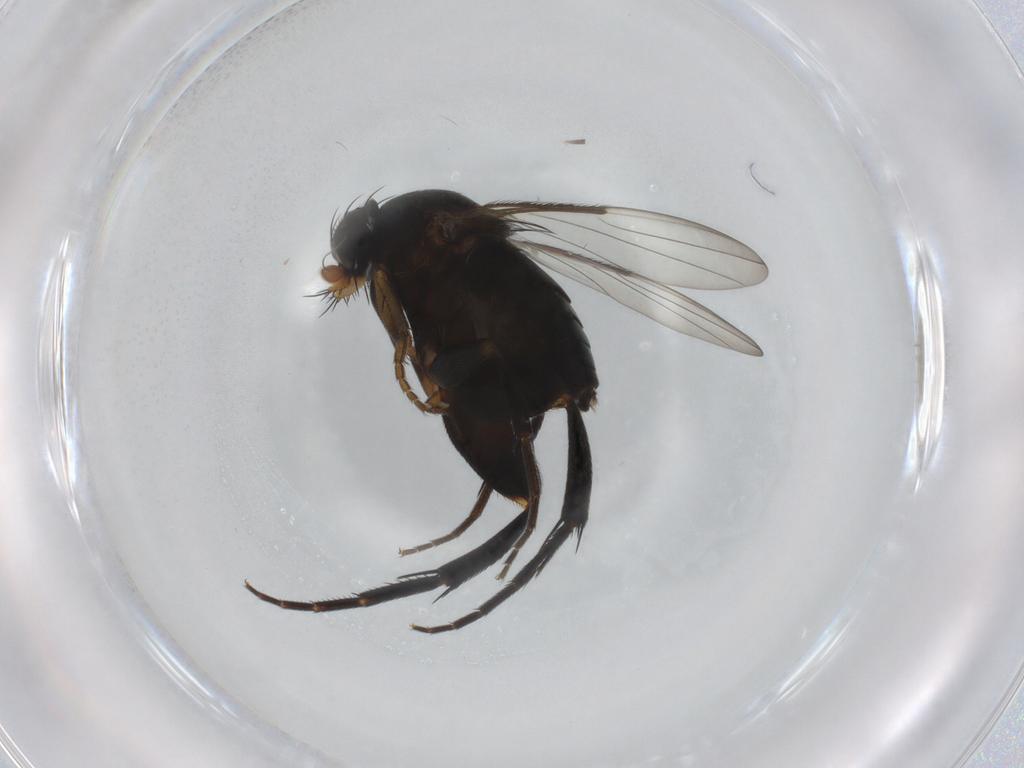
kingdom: Animalia
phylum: Arthropoda
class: Insecta
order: Diptera
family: Phoridae
